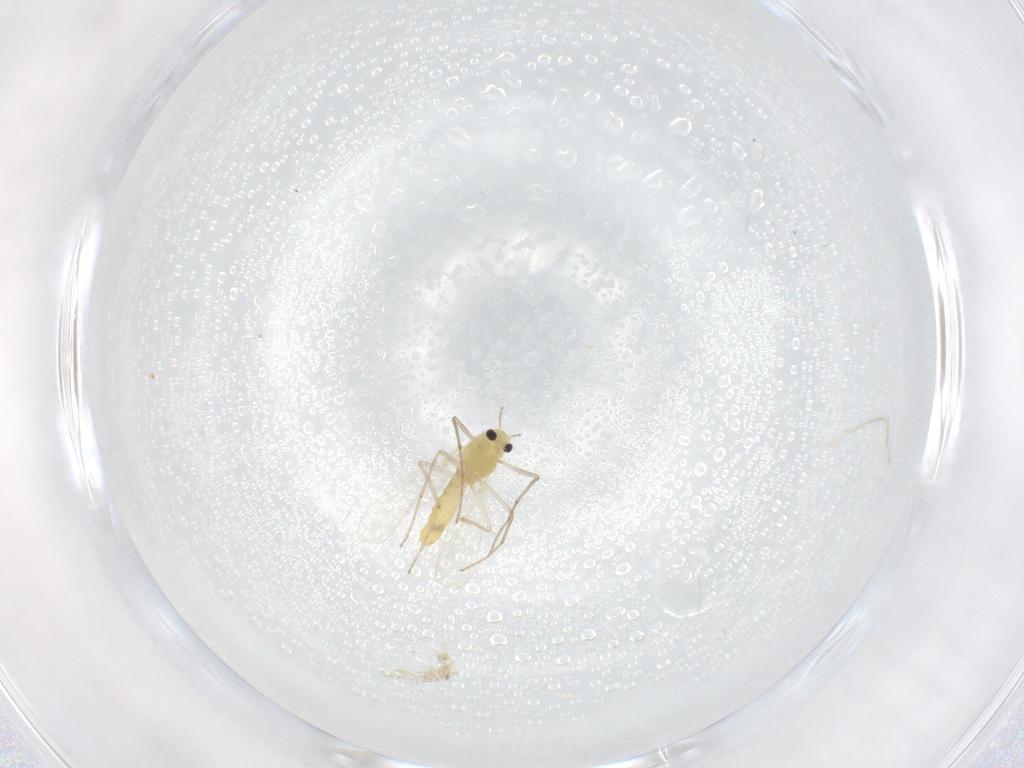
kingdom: Animalia
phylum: Arthropoda
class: Insecta
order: Diptera
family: Chironomidae
